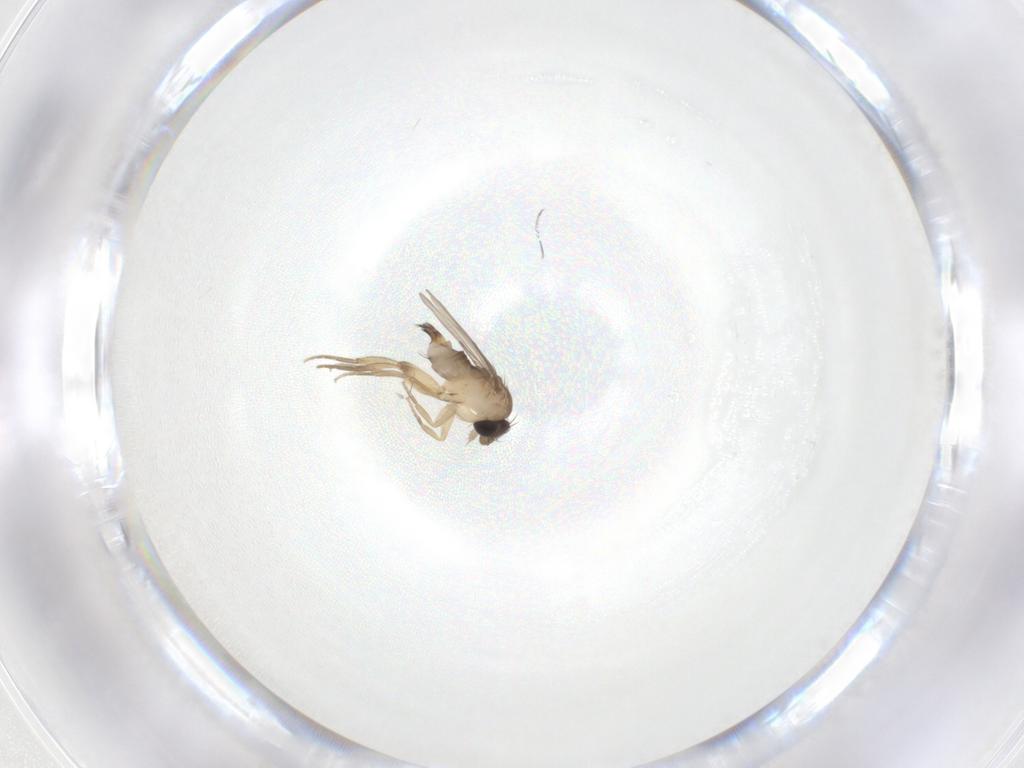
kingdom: Animalia
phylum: Arthropoda
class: Insecta
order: Diptera
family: Phoridae
